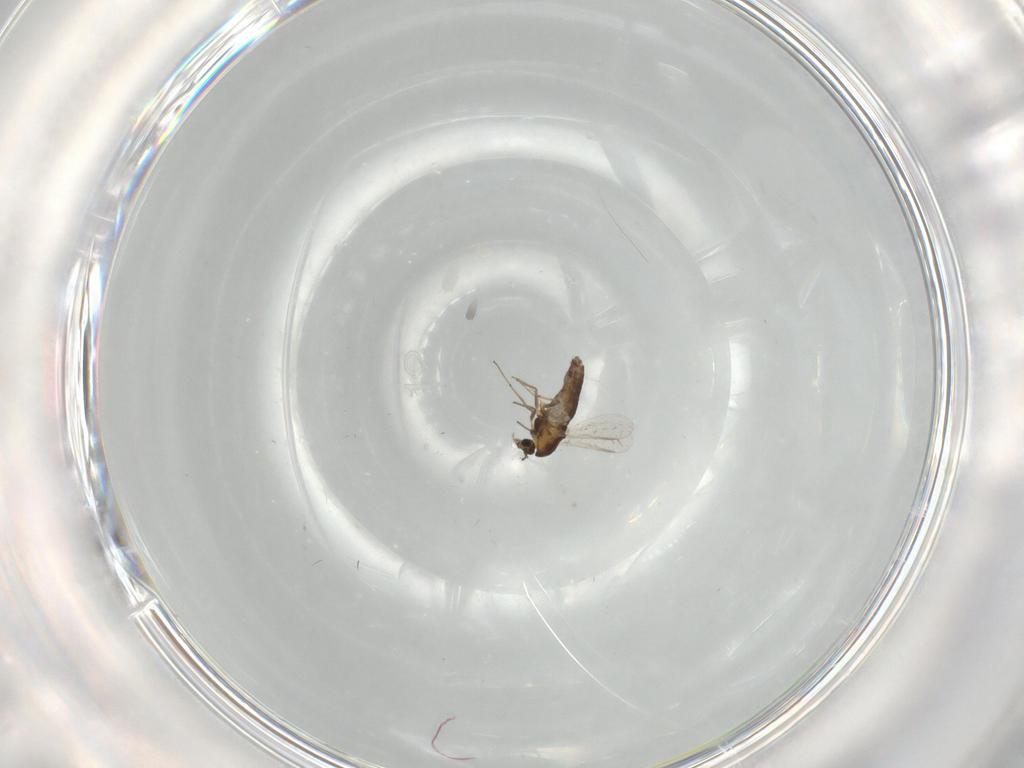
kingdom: Animalia
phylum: Arthropoda
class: Insecta
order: Diptera
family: Chironomidae
